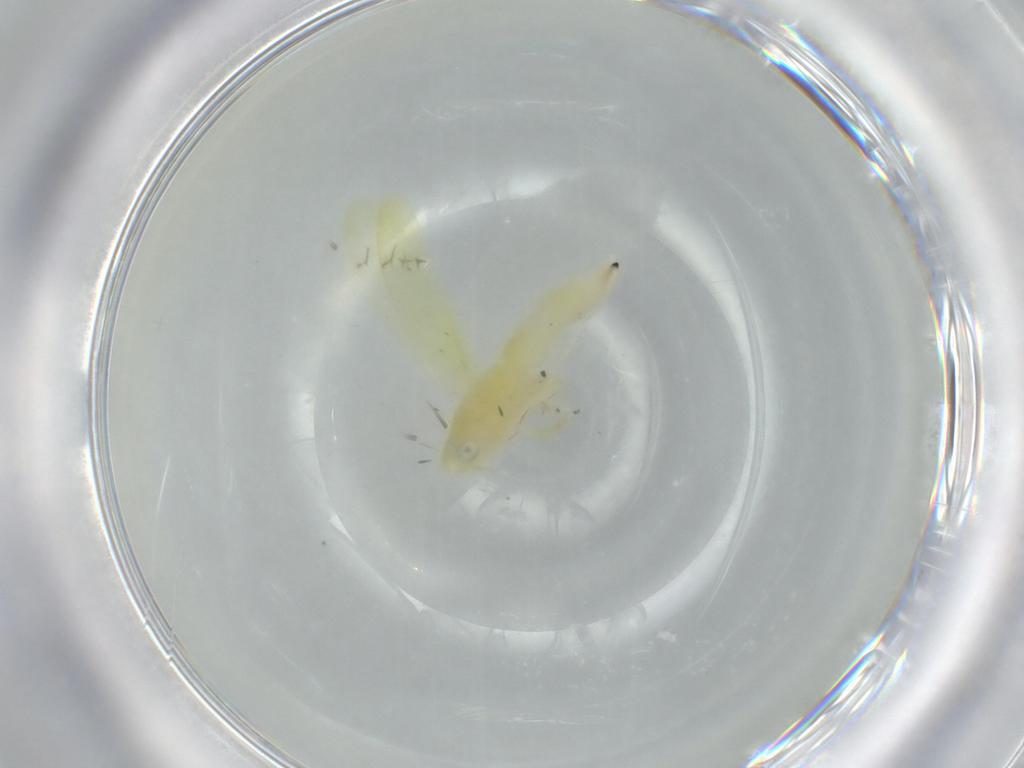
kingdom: Animalia
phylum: Arthropoda
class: Insecta
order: Hemiptera
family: Cicadellidae
